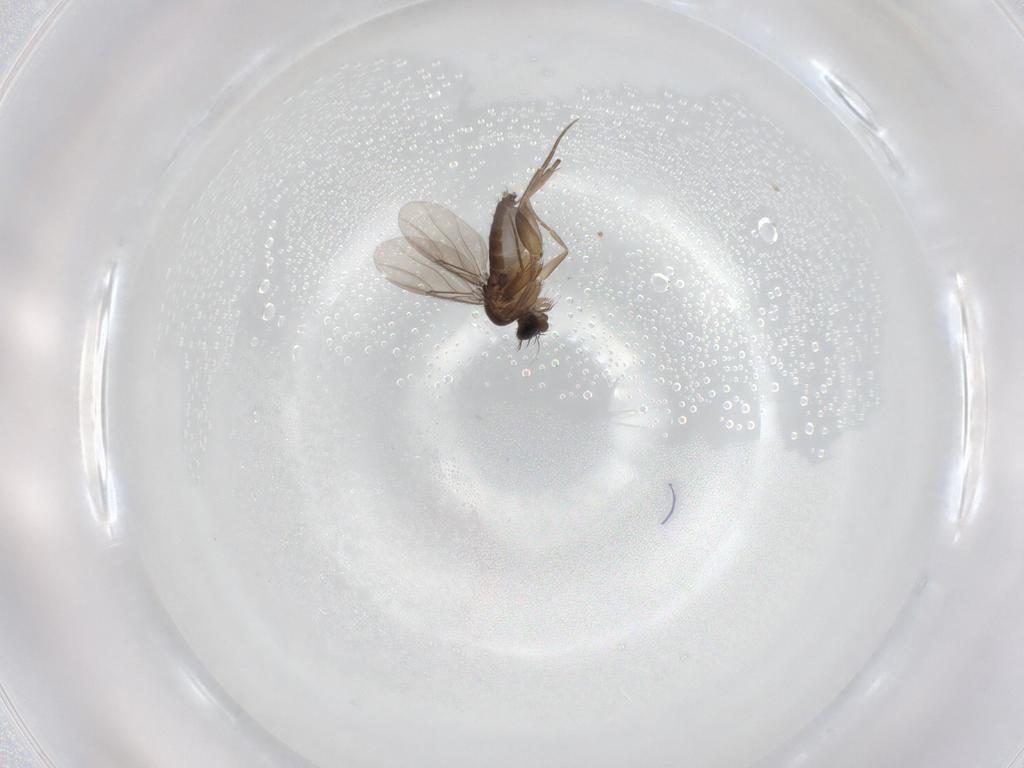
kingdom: Animalia
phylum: Arthropoda
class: Insecta
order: Diptera
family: Phoridae
